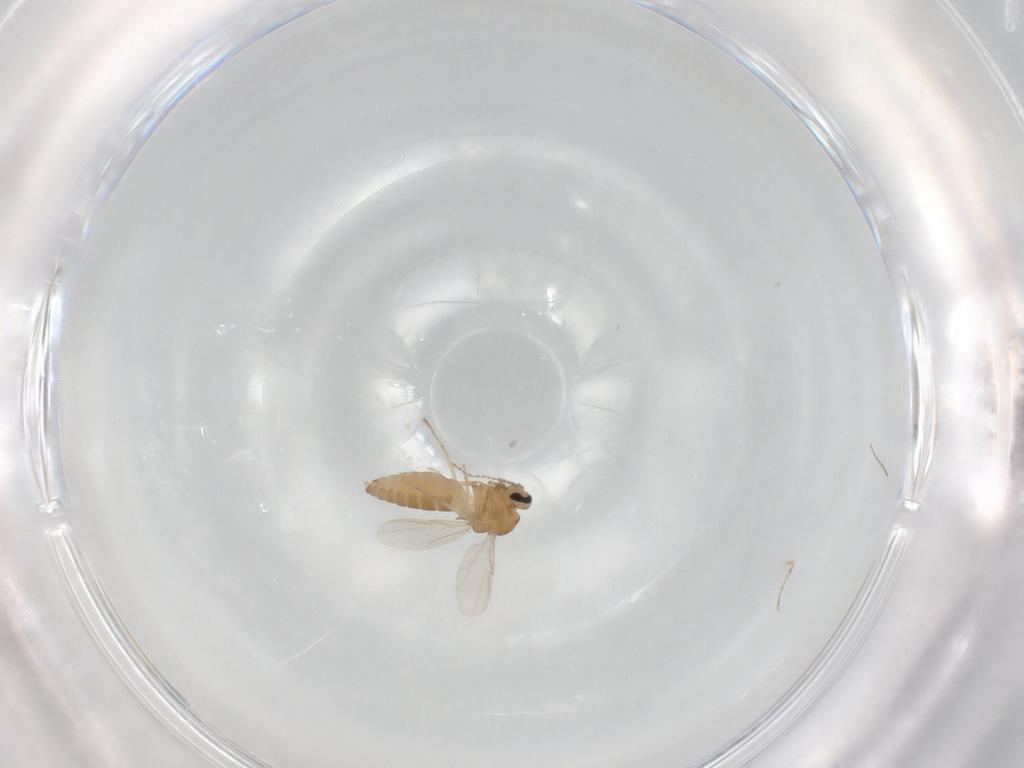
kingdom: Animalia
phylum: Arthropoda
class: Insecta
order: Diptera
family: Ceratopogonidae
